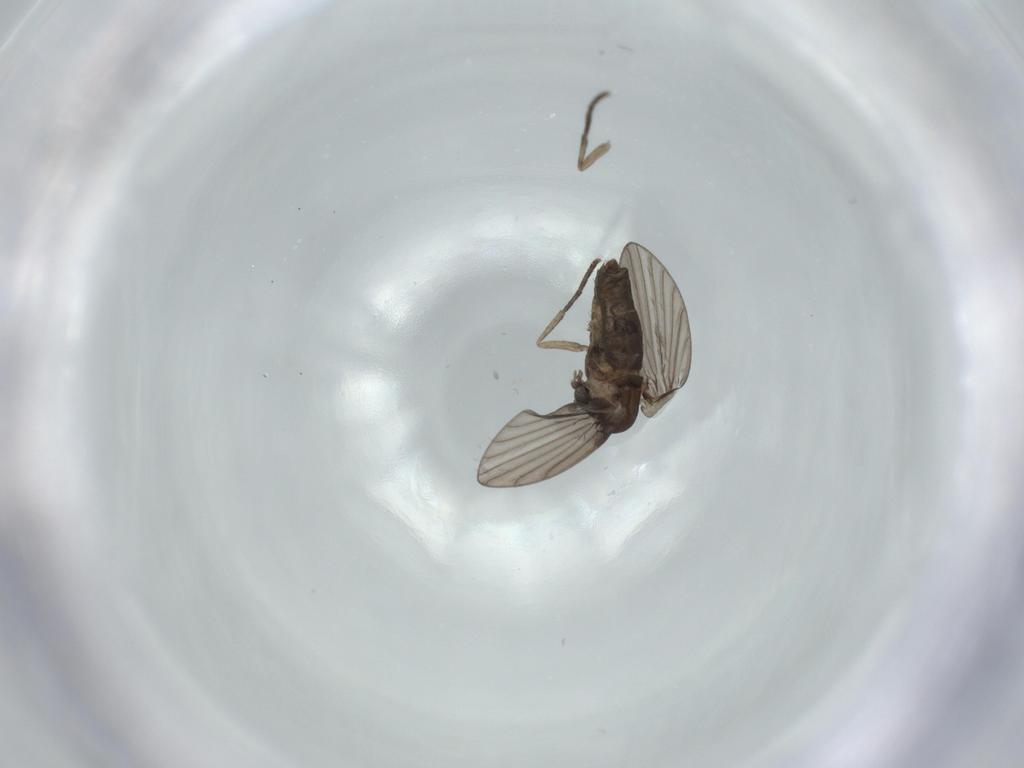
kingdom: Animalia
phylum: Arthropoda
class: Insecta
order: Diptera
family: Psychodidae
